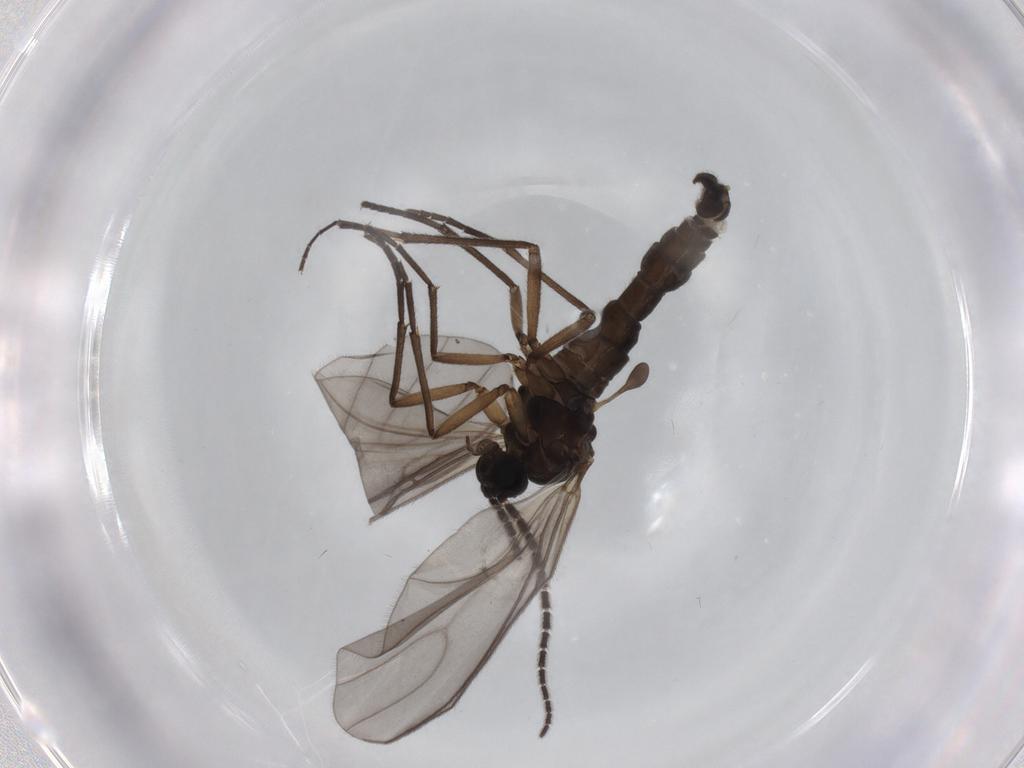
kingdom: Animalia
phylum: Arthropoda
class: Insecta
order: Diptera
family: Sciaridae
